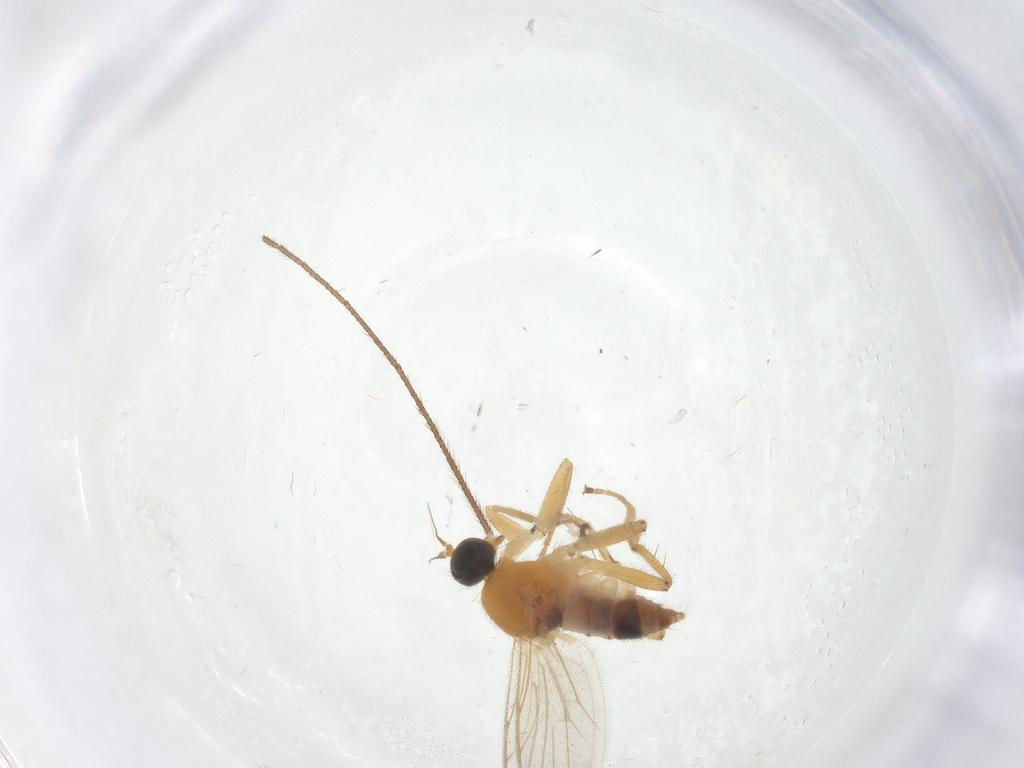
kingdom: Animalia
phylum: Arthropoda
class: Insecta
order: Diptera
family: Hybotidae
